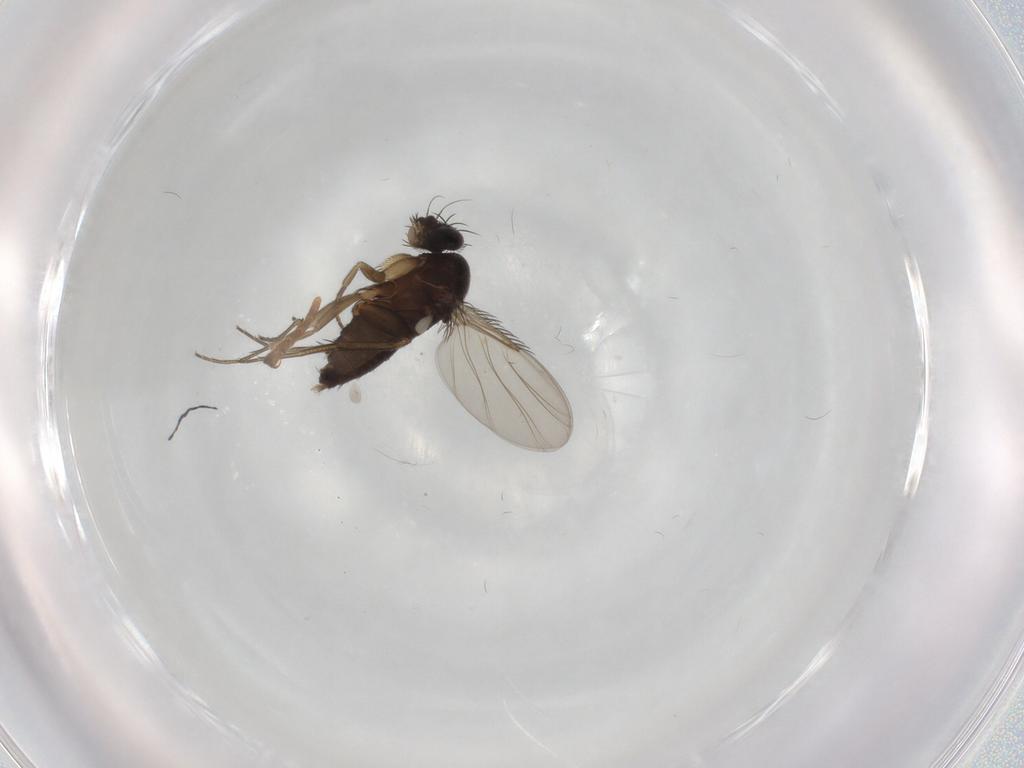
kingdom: Animalia
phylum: Arthropoda
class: Insecta
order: Diptera
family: Phoridae
